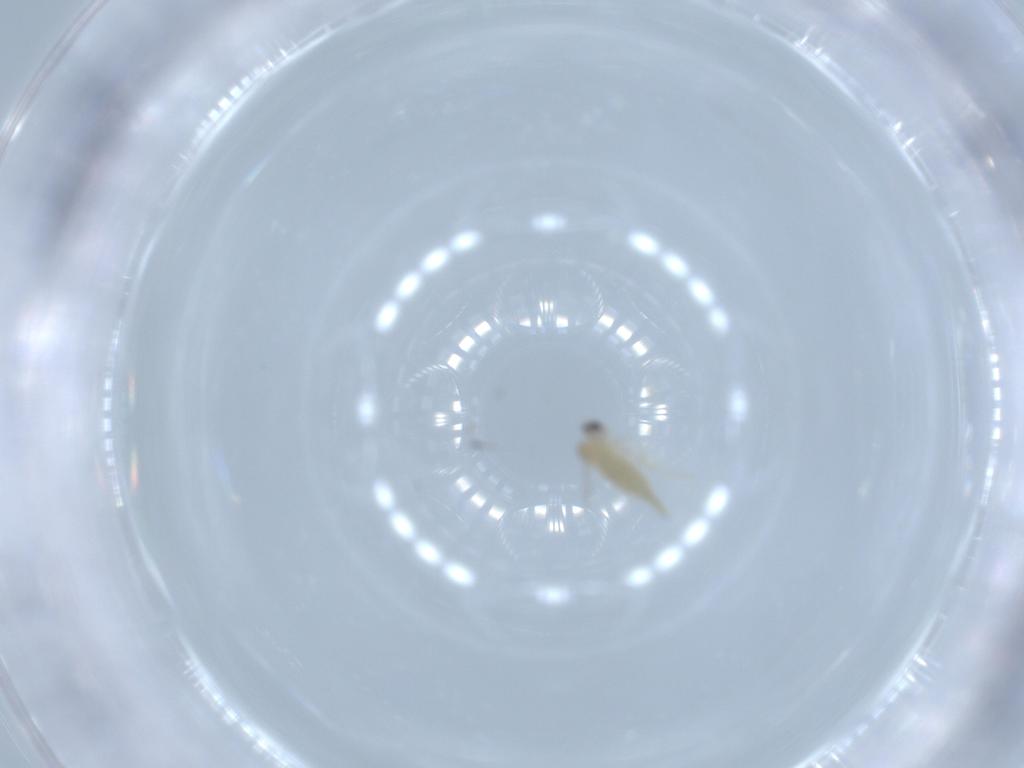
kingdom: Animalia
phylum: Arthropoda
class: Insecta
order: Diptera
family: Cecidomyiidae
